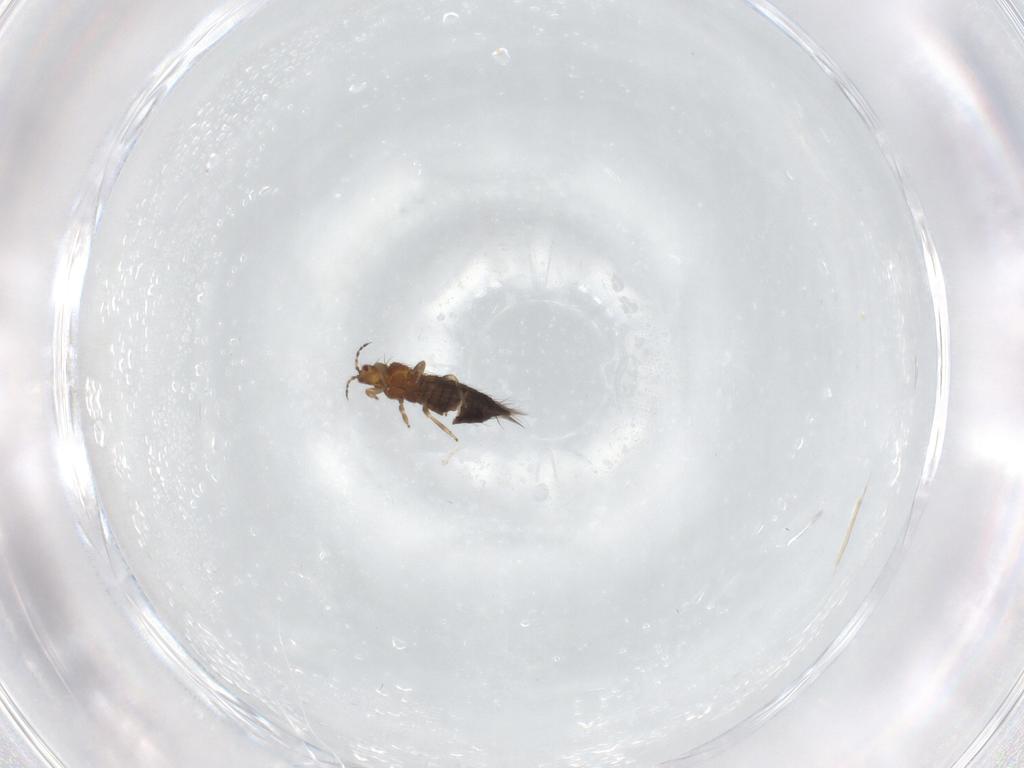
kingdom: Animalia
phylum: Arthropoda
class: Insecta
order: Thysanoptera
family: Thripidae
